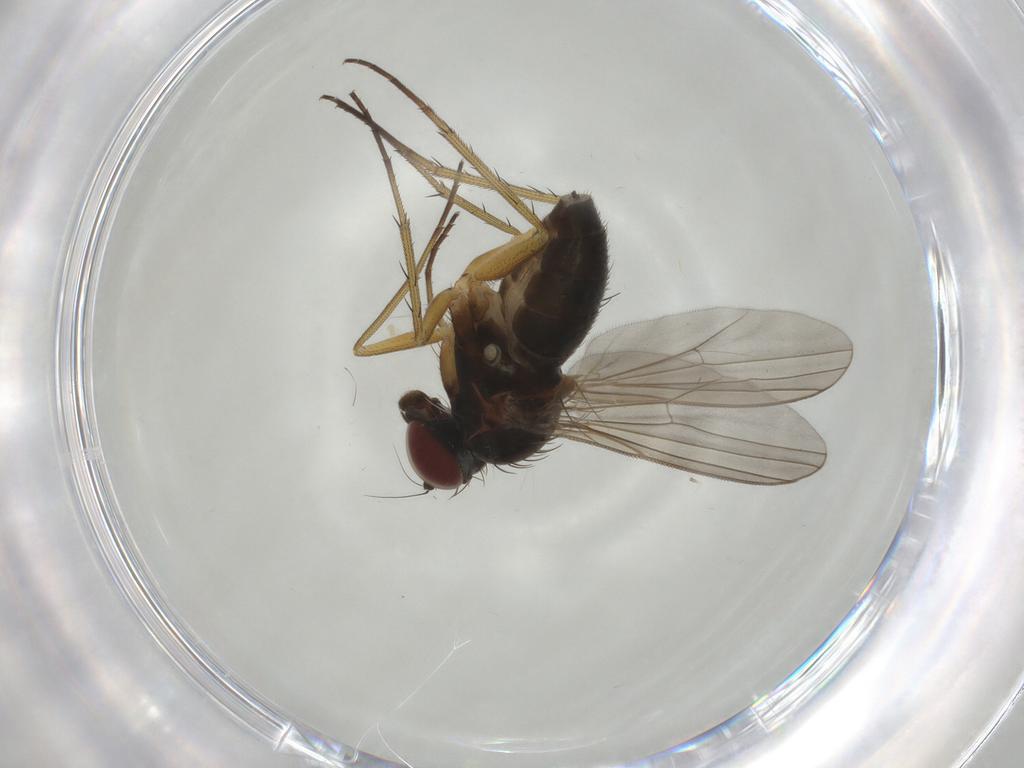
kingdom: Animalia
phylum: Arthropoda
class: Insecta
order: Diptera
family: Dolichopodidae
